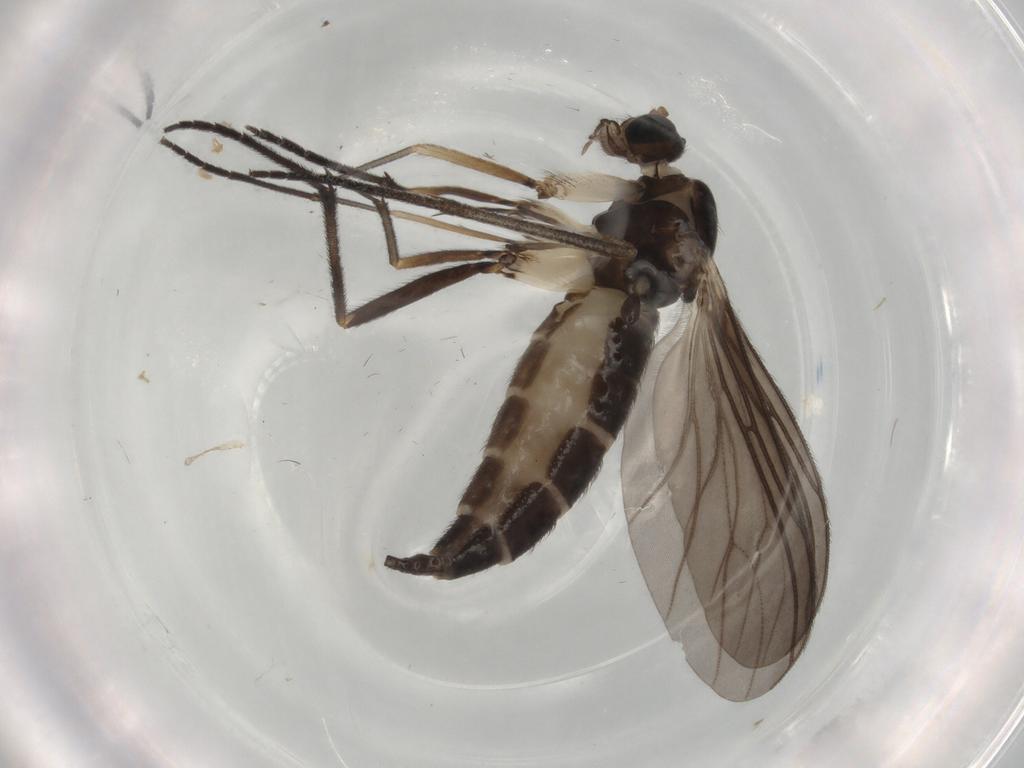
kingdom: Animalia
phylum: Arthropoda
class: Insecta
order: Diptera
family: Sciaridae
